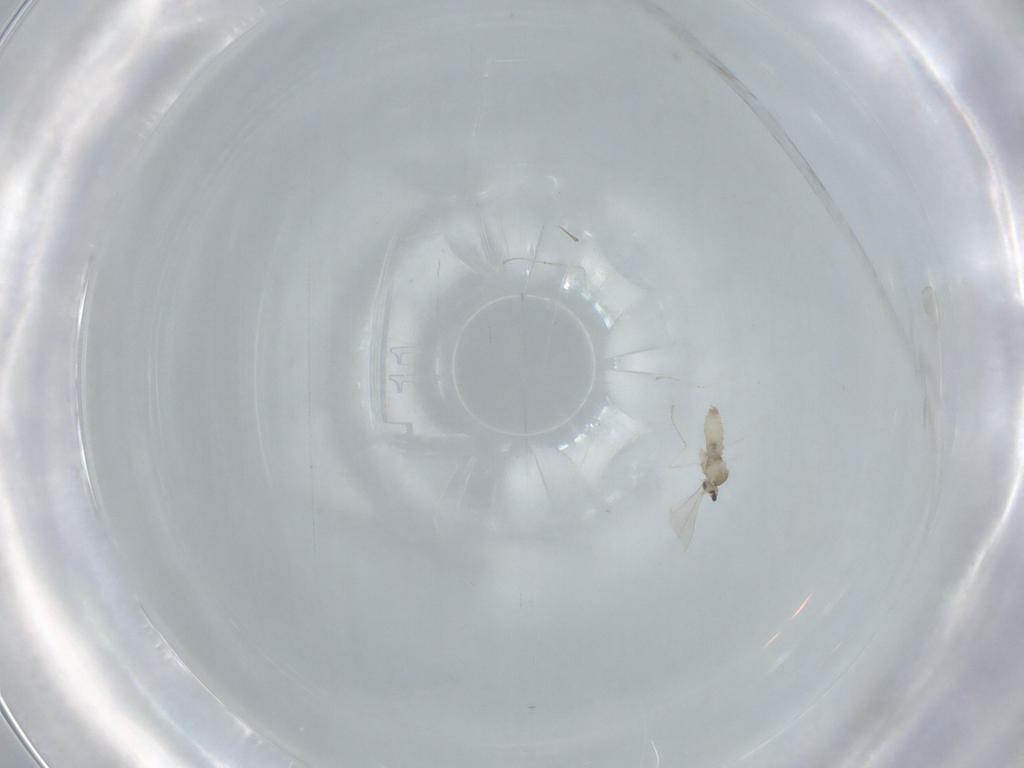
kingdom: Animalia
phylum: Arthropoda
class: Insecta
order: Diptera
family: Cecidomyiidae
